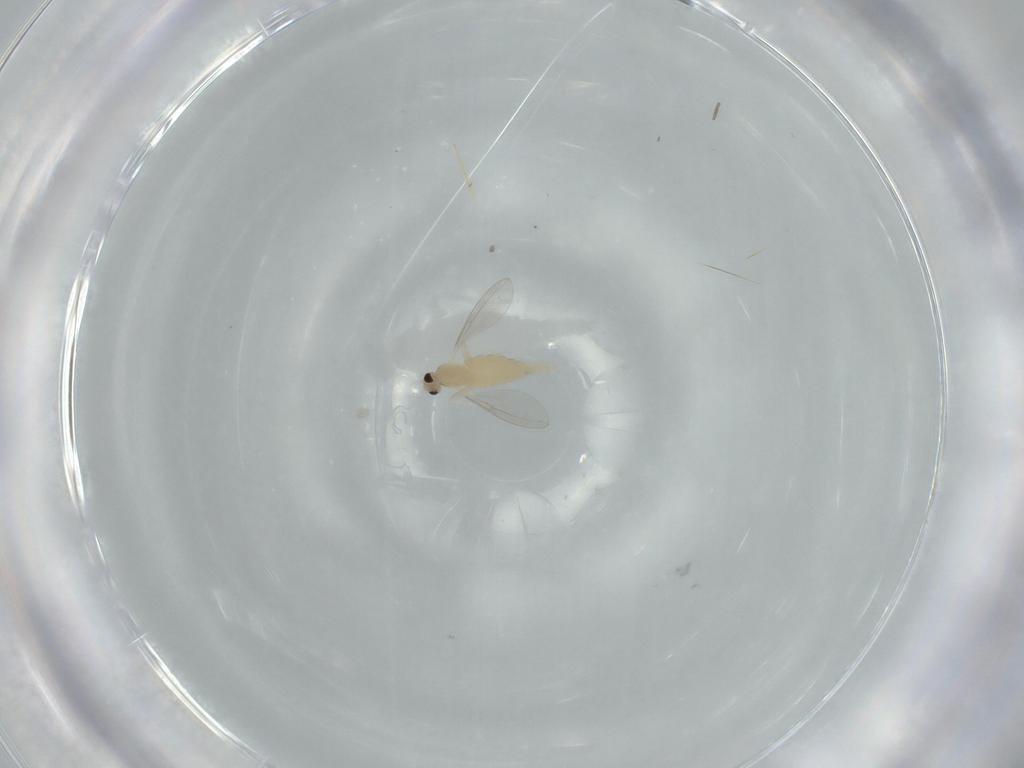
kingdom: Animalia
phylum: Arthropoda
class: Insecta
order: Diptera
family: Cecidomyiidae
